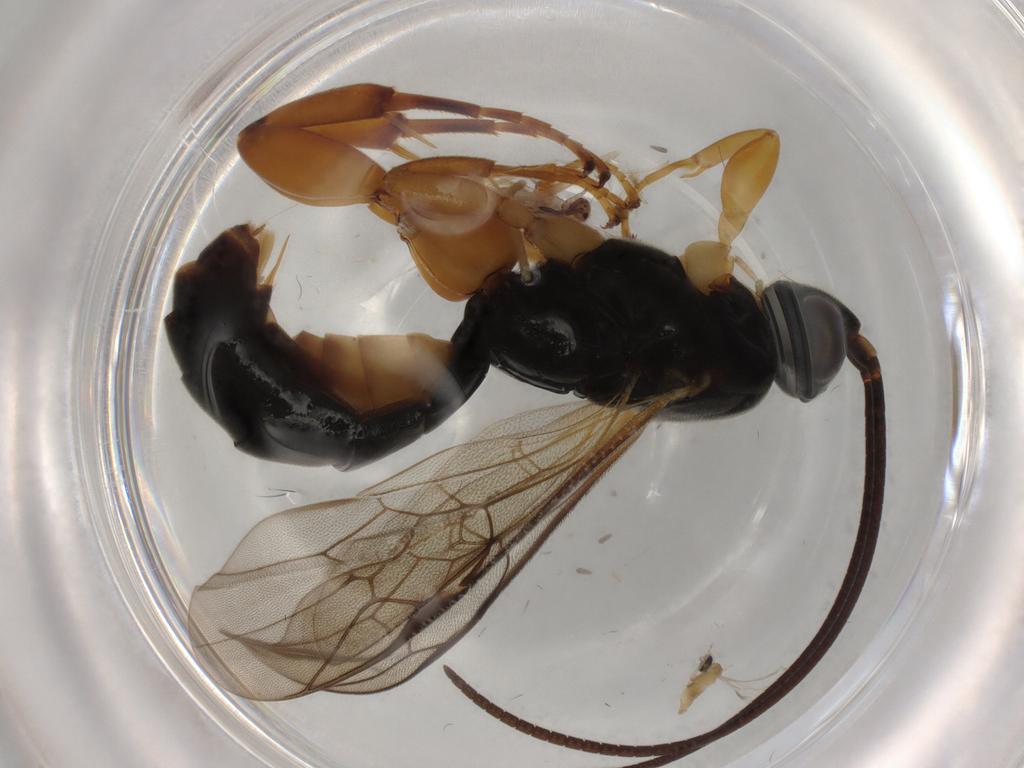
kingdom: Animalia
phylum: Arthropoda
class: Insecta
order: Hymenoptera
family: Ichneumonidae
